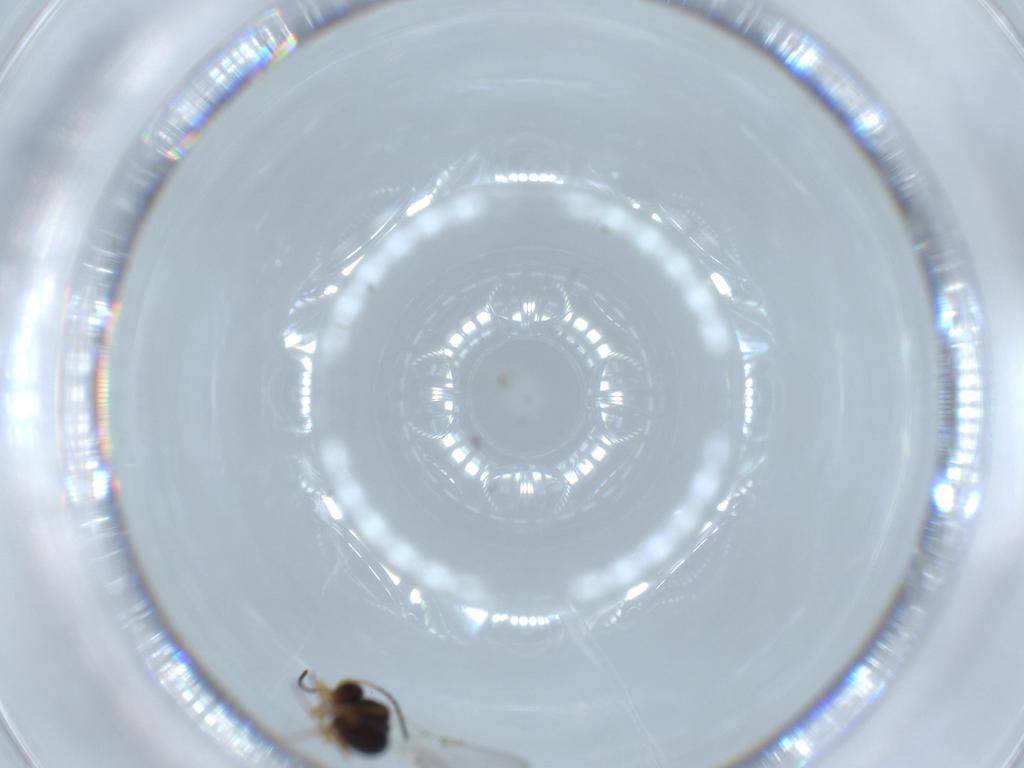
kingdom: Animalia
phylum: Arthropoda
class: Insecta
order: Hymenoptera
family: Figitidae
